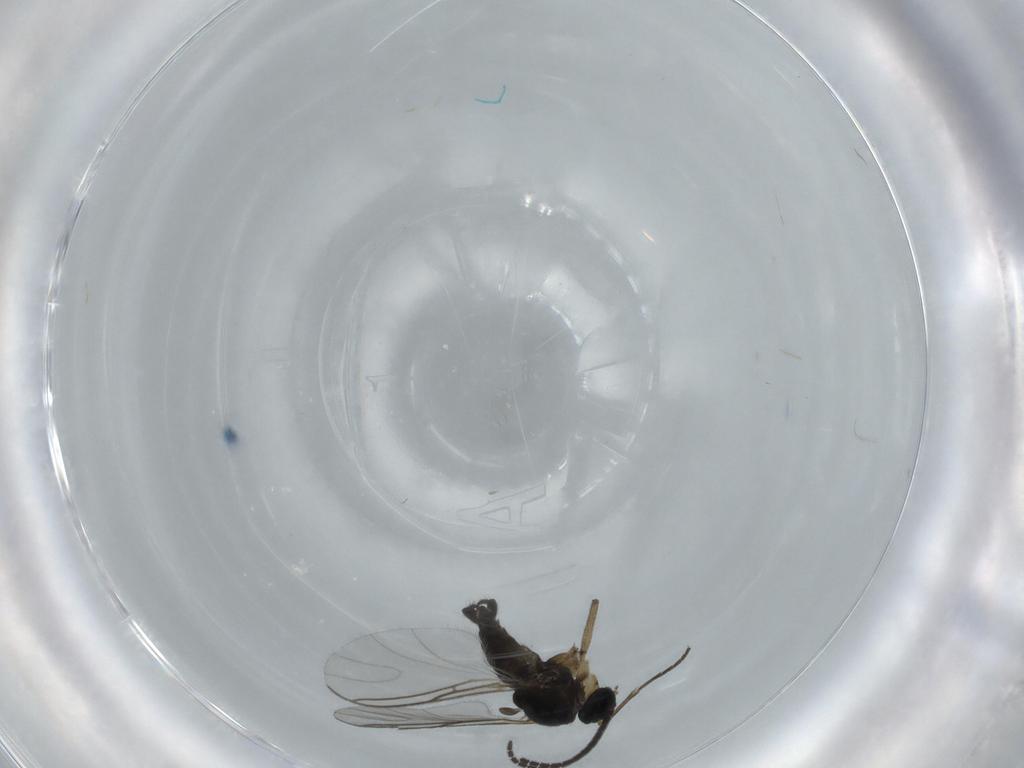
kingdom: Animalia
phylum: Arthropoda
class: Insecta
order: Diptera
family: Sciaridae
